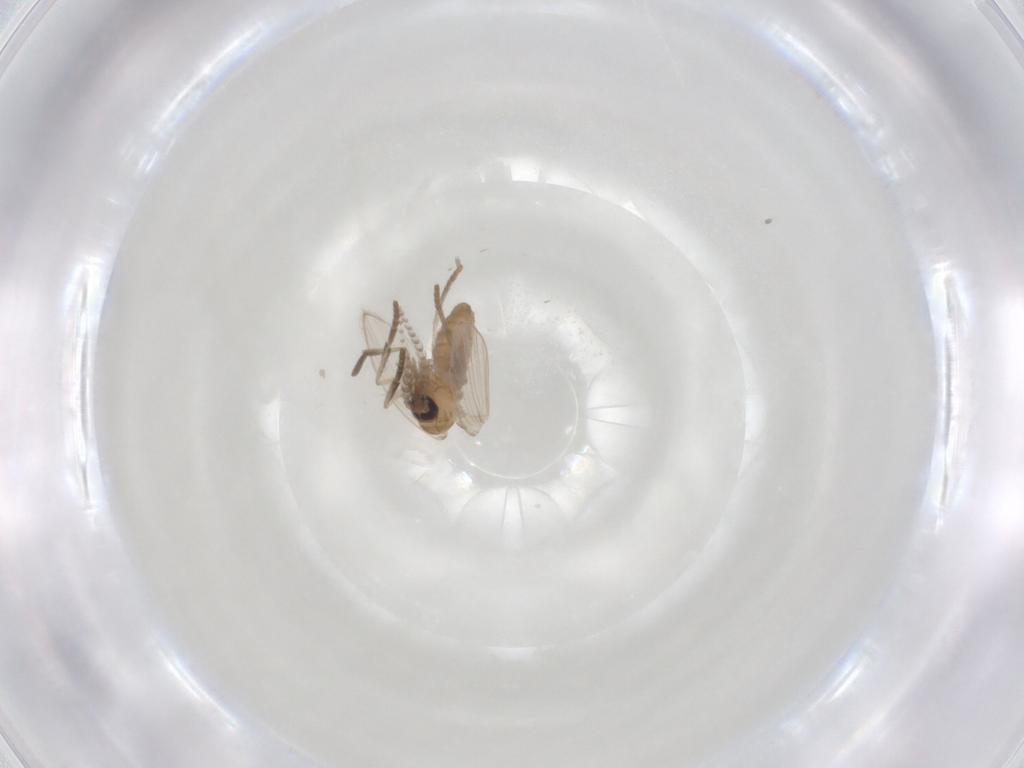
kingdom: Animalia
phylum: Arthropoda
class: Insecta
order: Diptera
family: Psychodidae
